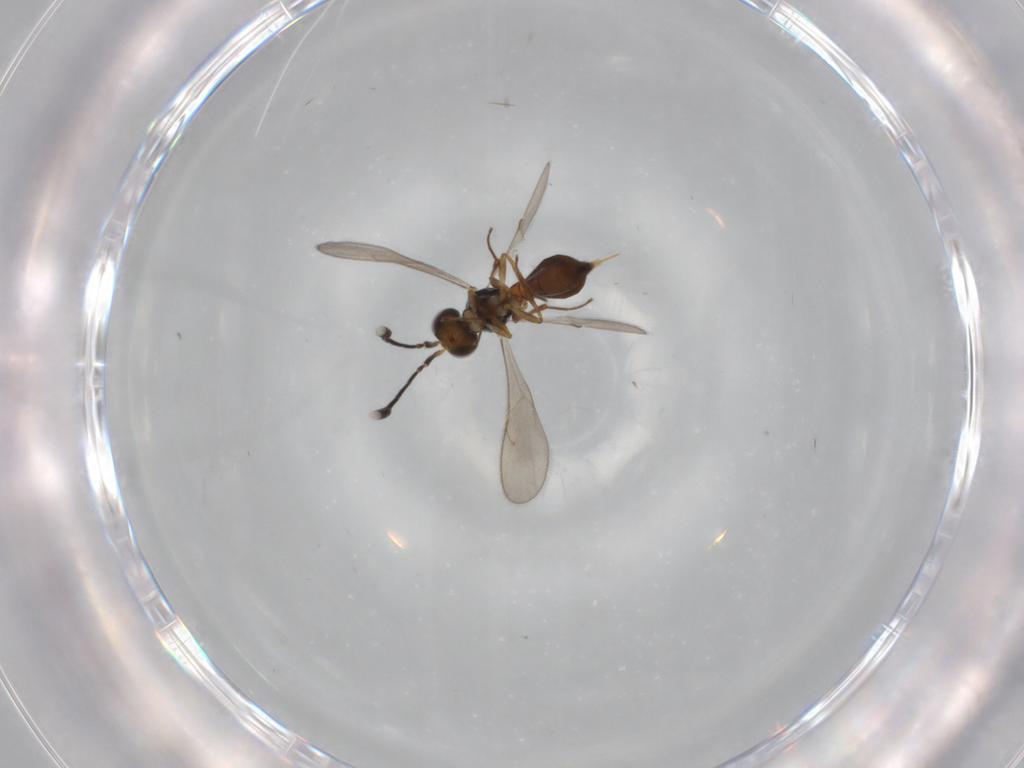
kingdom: Animalia
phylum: Arthropoda
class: Insecta
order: Hymenoptera
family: Scelionidae
